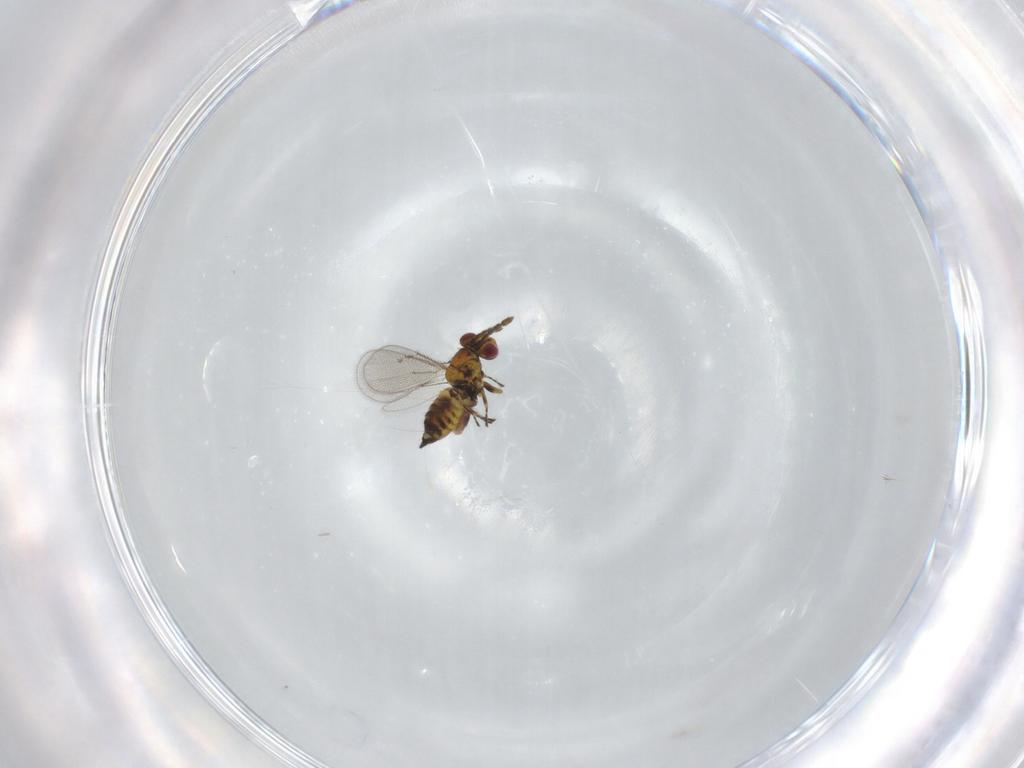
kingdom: Animalia
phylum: Arthropoda
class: Insecta
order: Hymenoptera
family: Eulophidae
